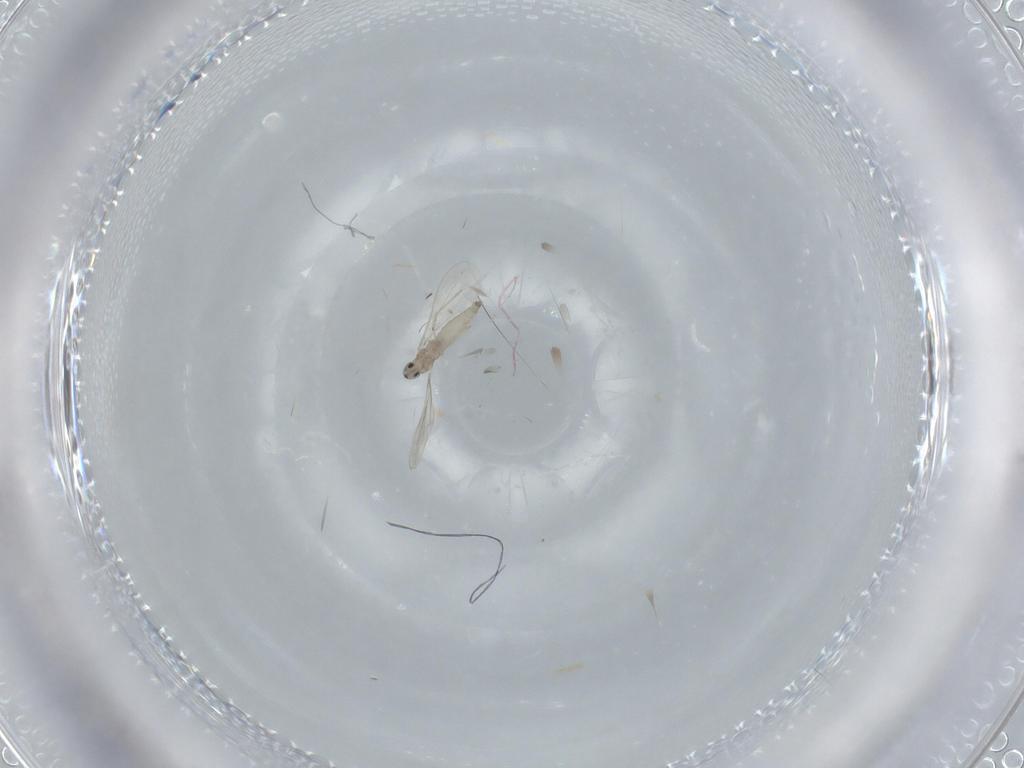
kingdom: Animalia
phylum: Arthropoda
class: Insecta
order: Diptera
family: Cecidomyiidae
